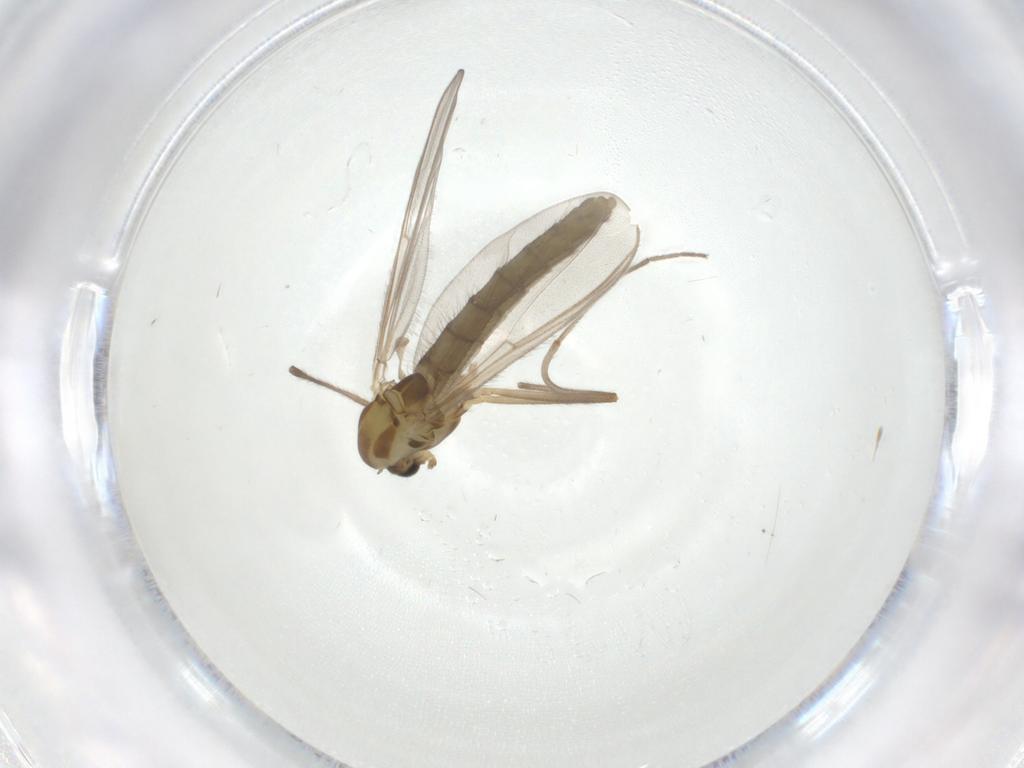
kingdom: Animalia
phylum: Arthropoda
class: Insecta
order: Diptera
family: Chironomidae
